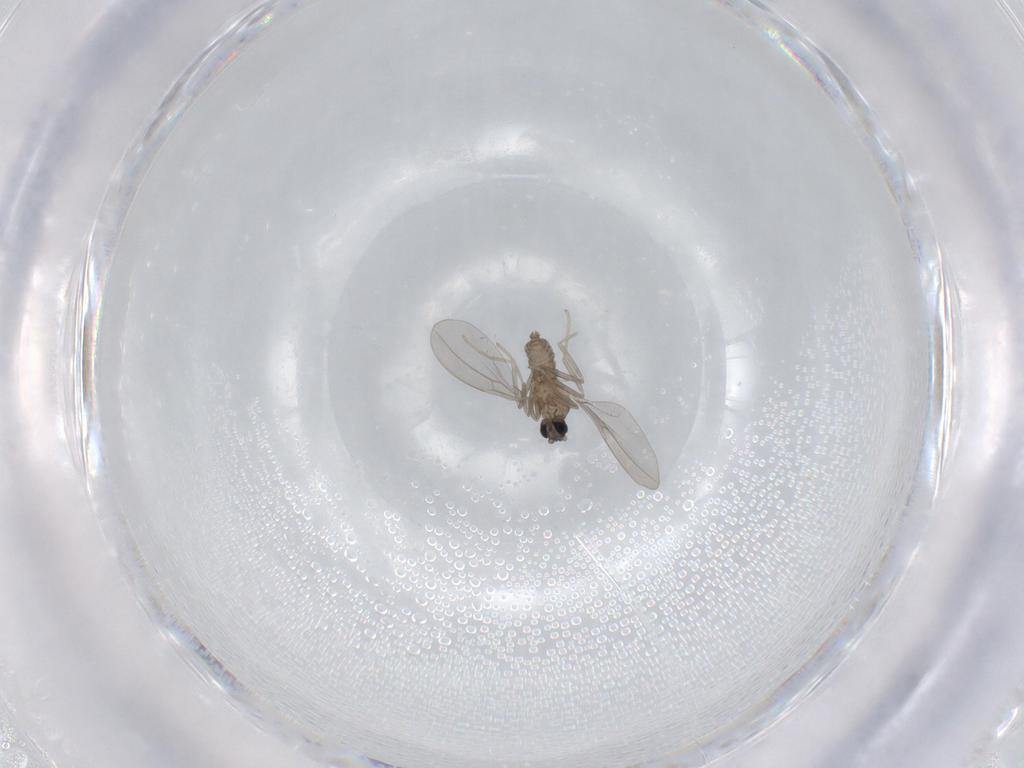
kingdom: Animalia
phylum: Arthropoda
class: Insecta
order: Diptera
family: Cecidomyiidae
